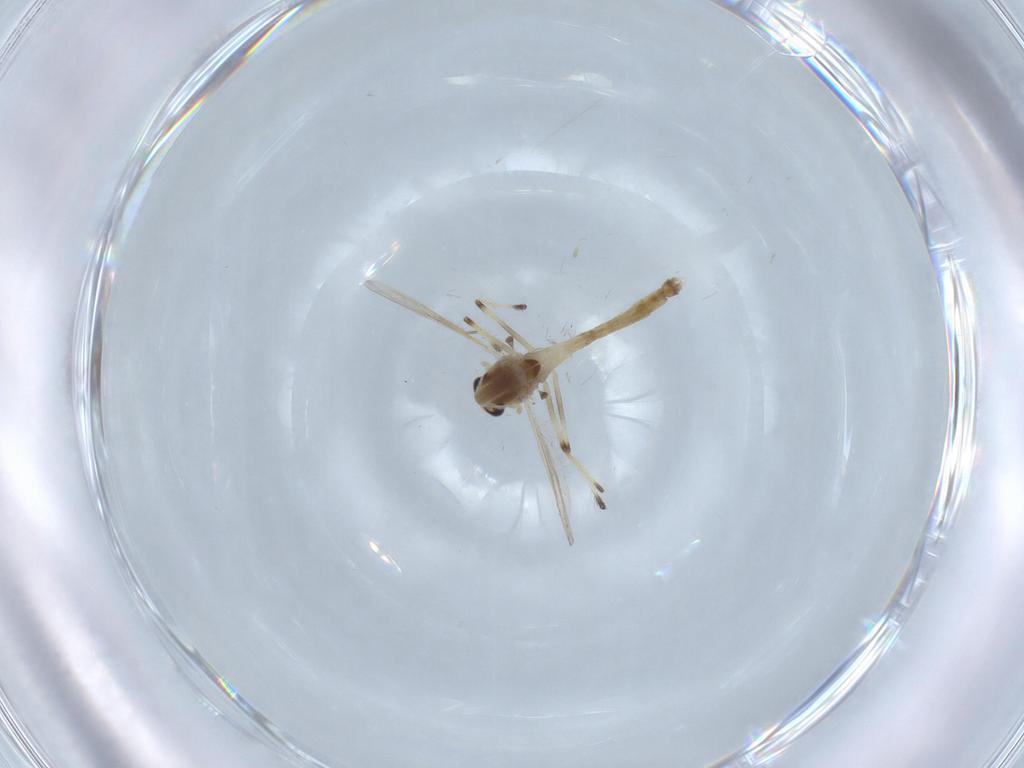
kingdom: Animalia
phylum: Arthropoda
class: Insecta
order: Diptera
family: Chironomidae
